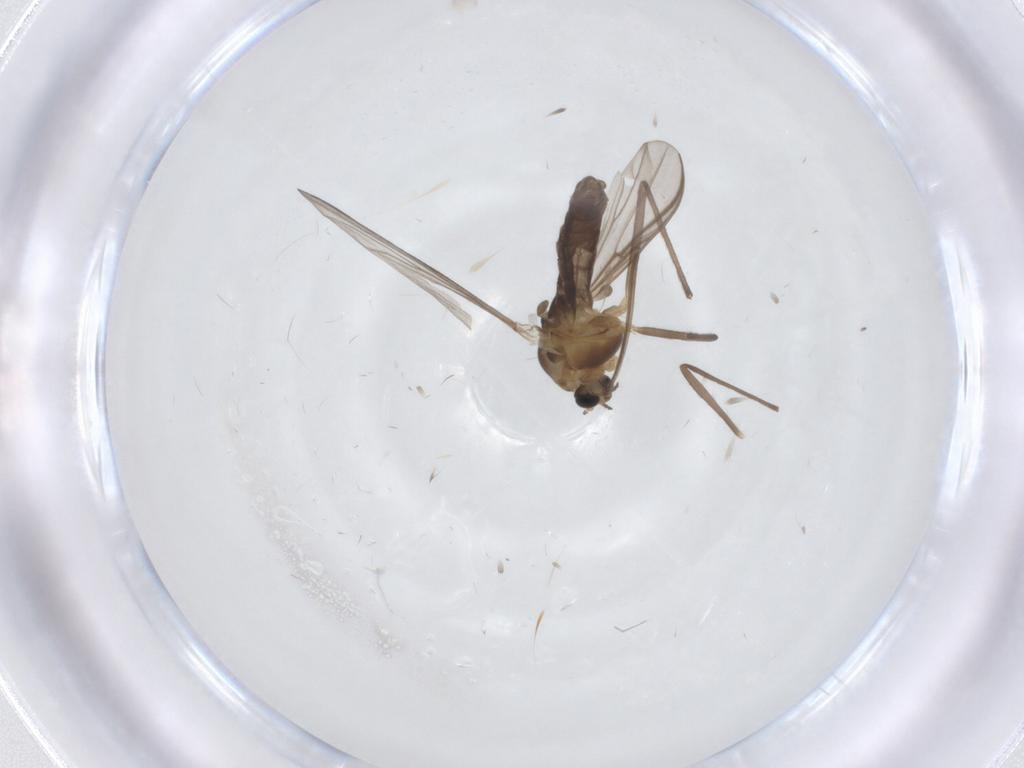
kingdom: Animalia
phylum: Arthropoda
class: Insecta
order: Diptera
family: Chironomidae
